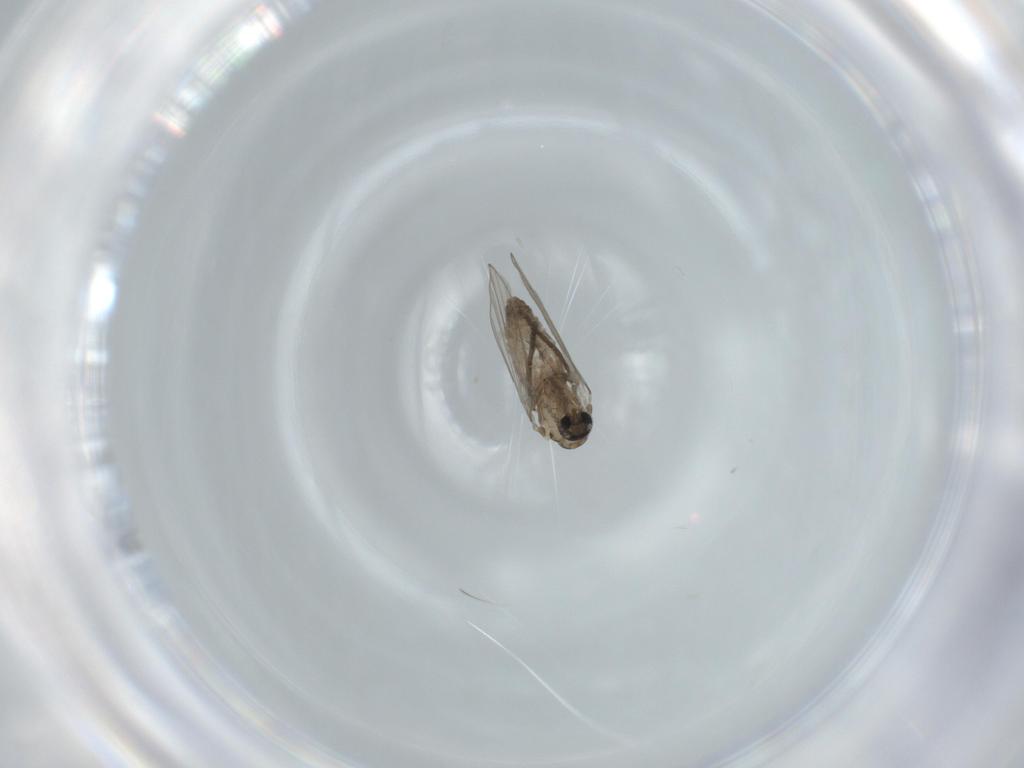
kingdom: Animalia
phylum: Arthropoda
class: Insecta
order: Diptera
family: Psychodidae
